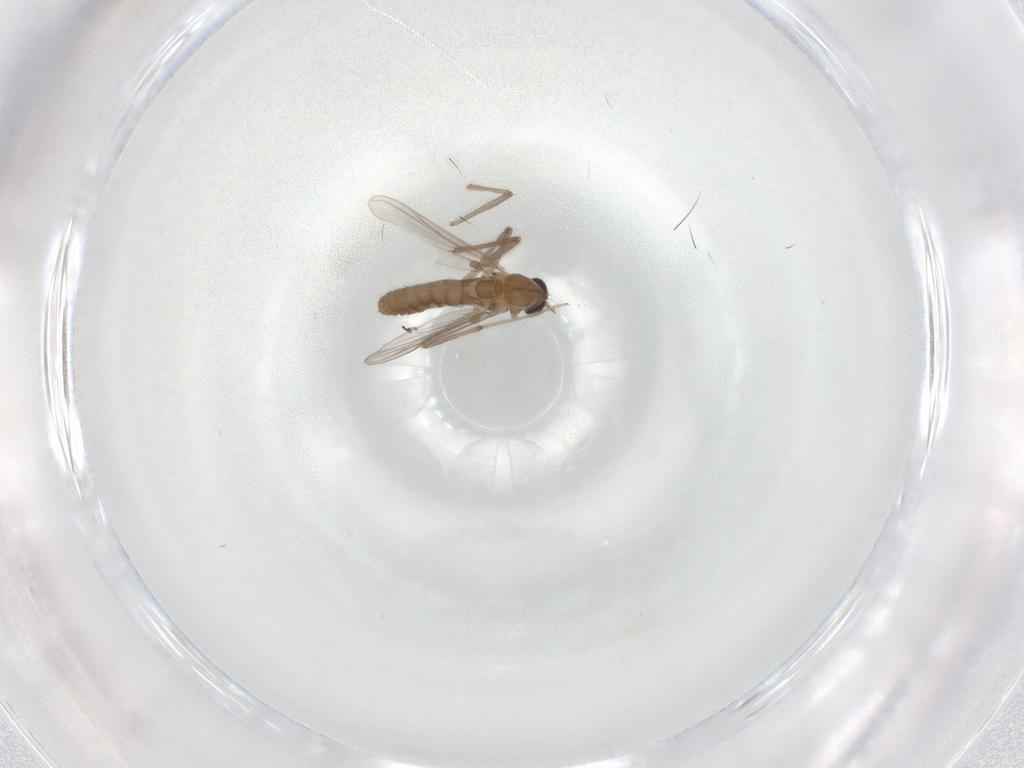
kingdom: Animalia
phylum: Arthropoda
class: Insecta
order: Diptera
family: Chironomidae
